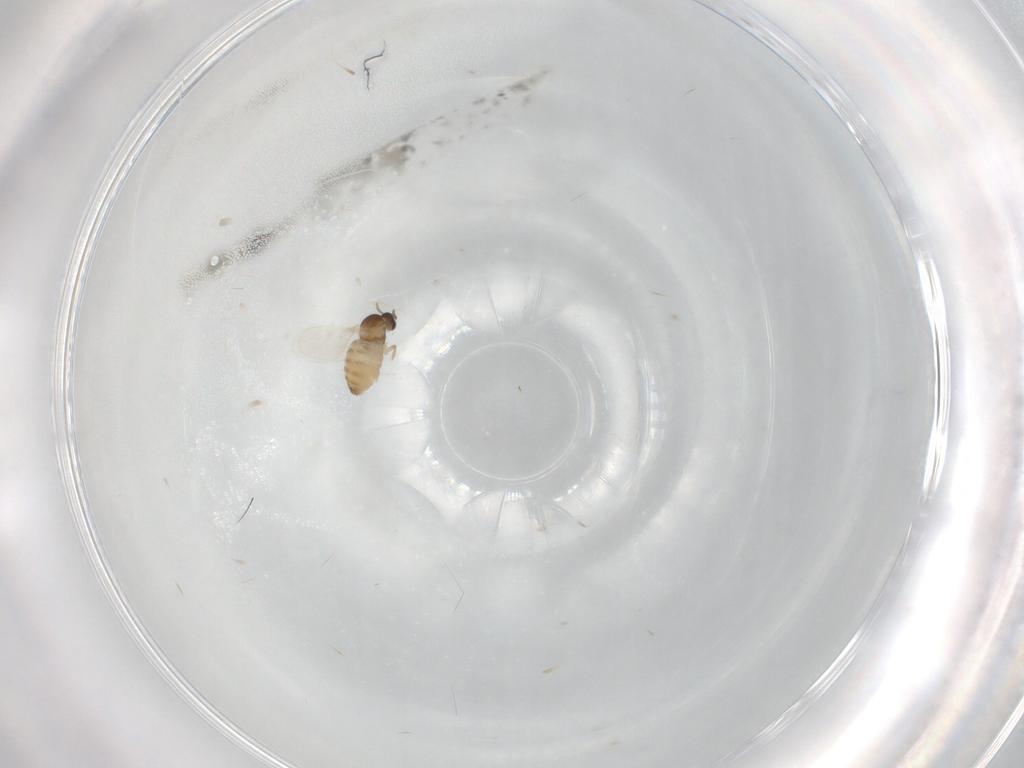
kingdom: Animalia
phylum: Arthropoda
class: Insecta
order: Diptera
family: Cecidomyiidae
